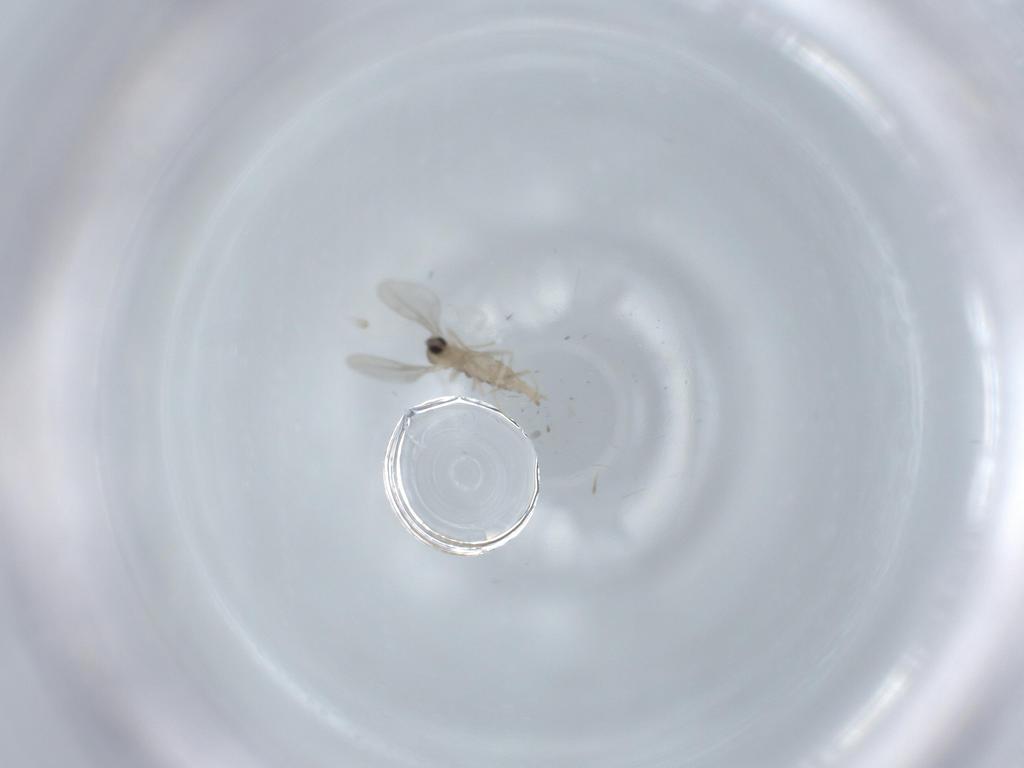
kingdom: Animalia
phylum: Arthropoda
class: Insecta
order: Diptera
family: Cecidomyiidae
